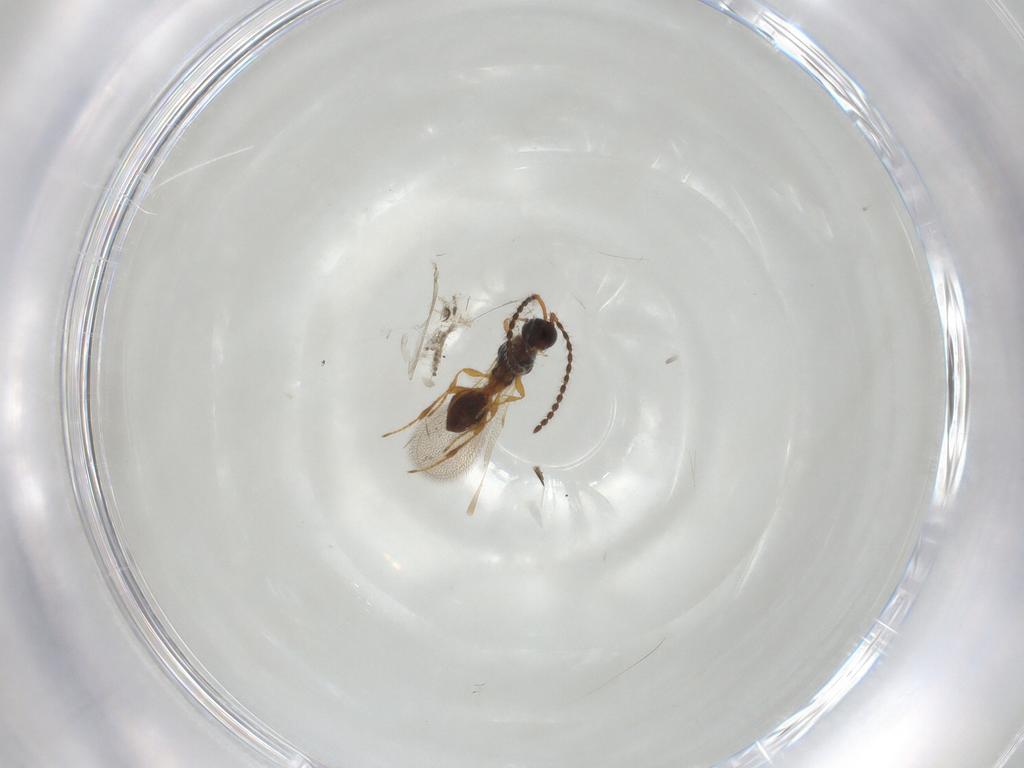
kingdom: Animalia
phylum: Arthropoda
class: Insecta
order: Hymenoptera
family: Diapriidae
